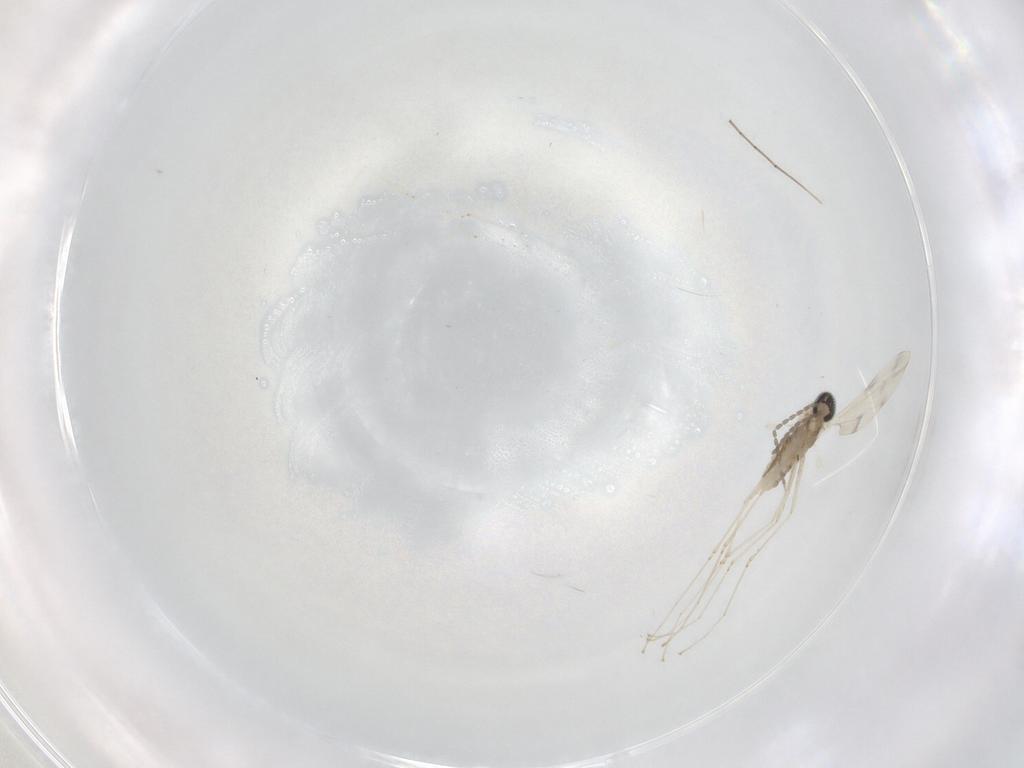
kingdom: Animalia
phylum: Arthropoda
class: Insecta
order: Diptera
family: Cecidomyiidae
